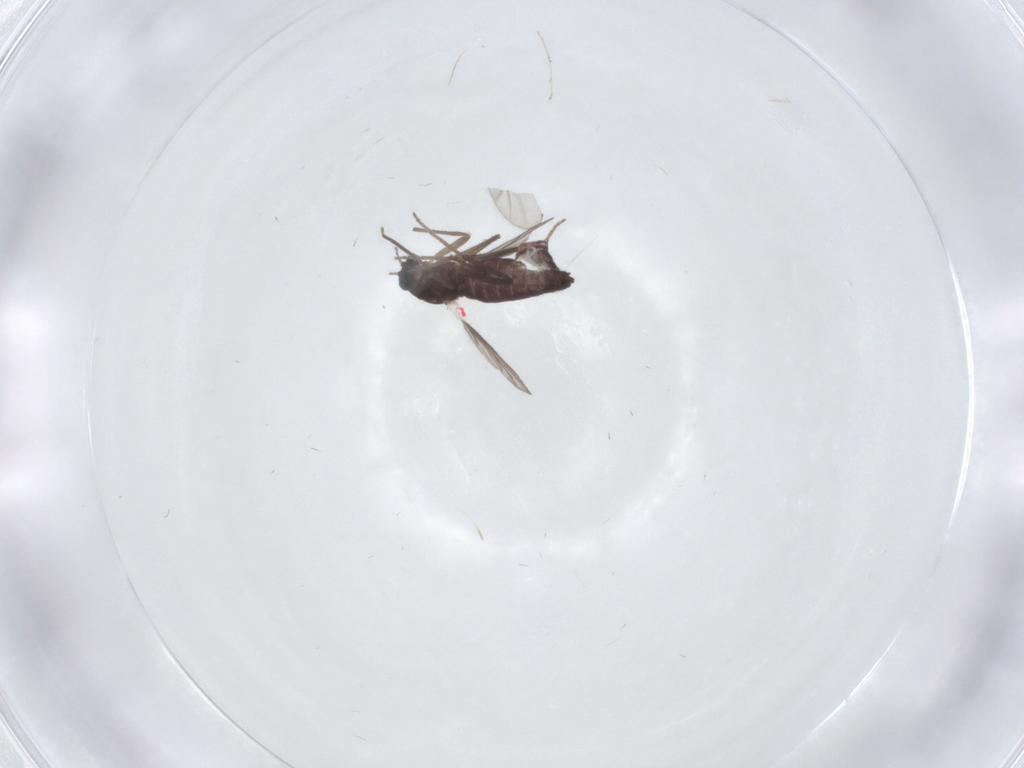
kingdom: Animalia
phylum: Arthropoda
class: Insecta
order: Diptera
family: Chironomidae
